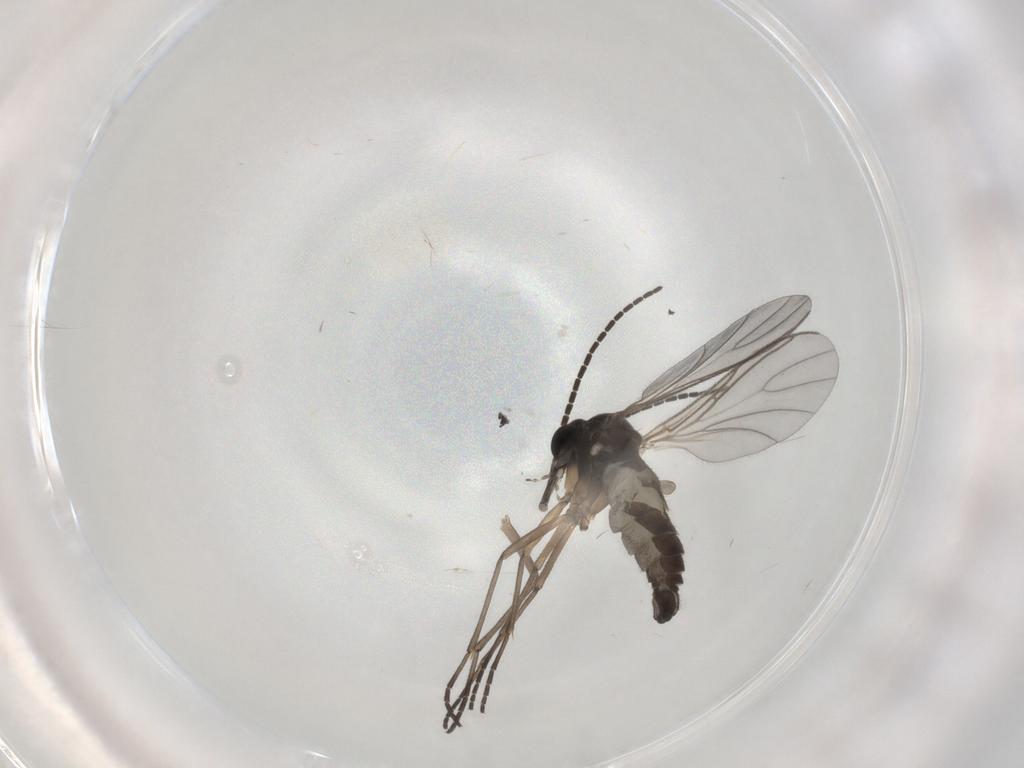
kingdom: Animalia
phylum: Arthropoda
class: Insecta
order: Diptera
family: Sciaridae
